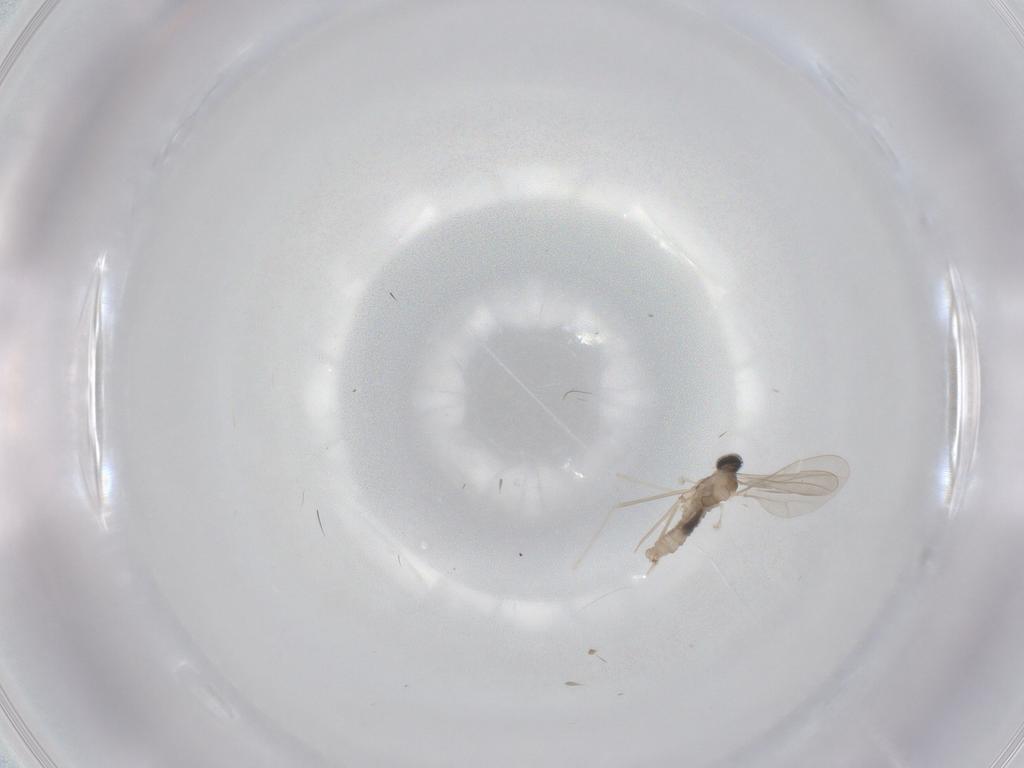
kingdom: Animalia
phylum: Arthropoda
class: Insecta
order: Diptera
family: Cecidomyiidae
